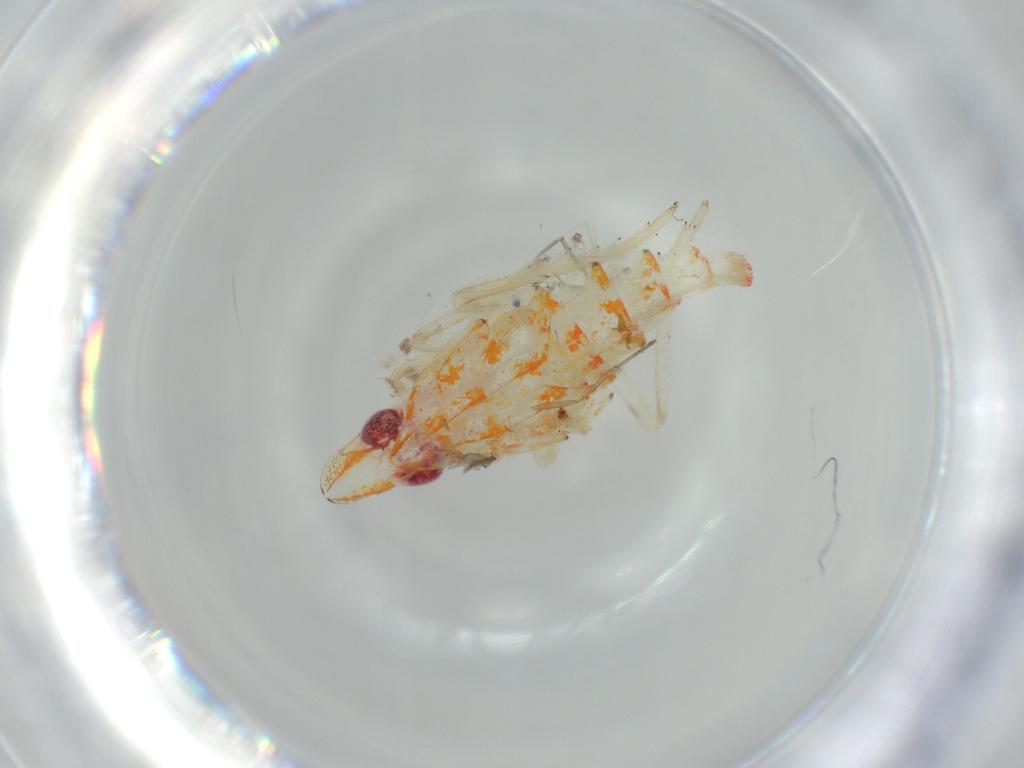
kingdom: Animalia
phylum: Arthropoda
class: Insecta
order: Hemiptera
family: Tropiduchidae
